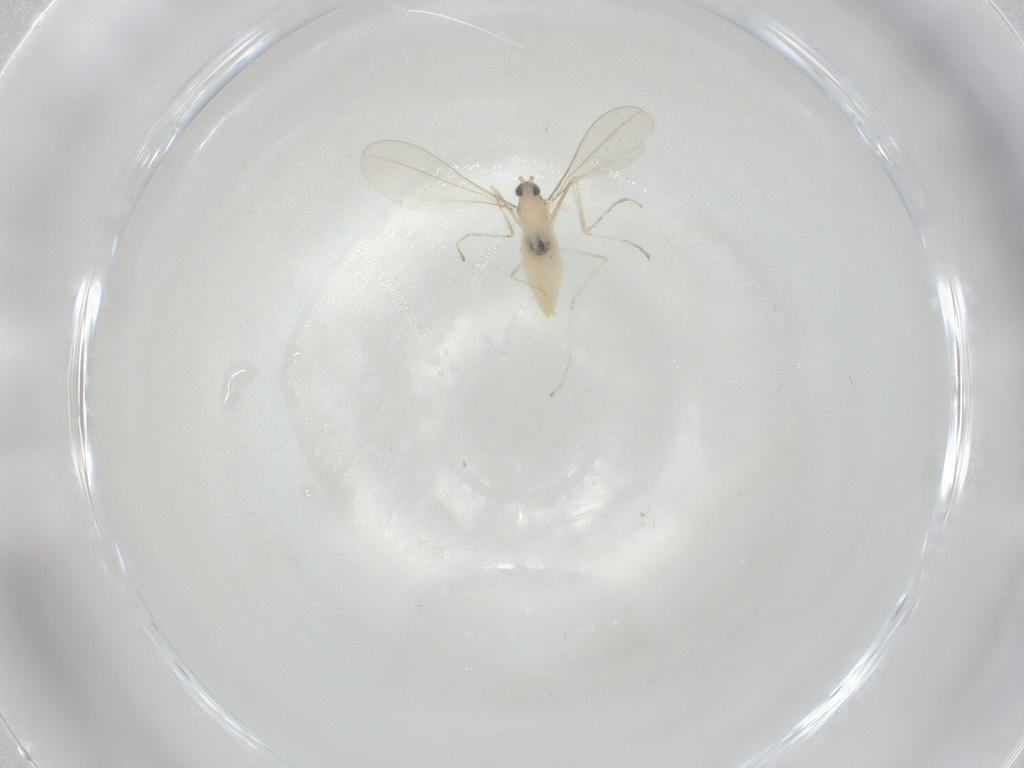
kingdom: Animalia
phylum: Arthropoda
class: Insecta
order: Diptera
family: Cecidomyiidae
